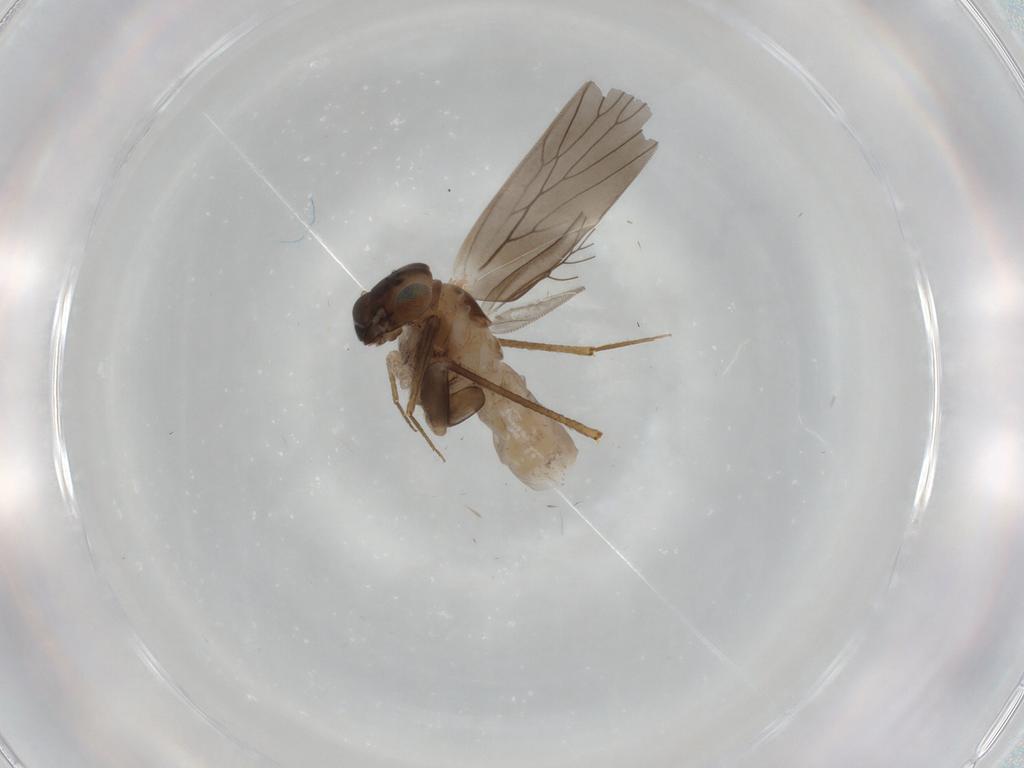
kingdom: Animalia
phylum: Arthropoda
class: Insecta
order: Psocodea
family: Lepidopsocidae
